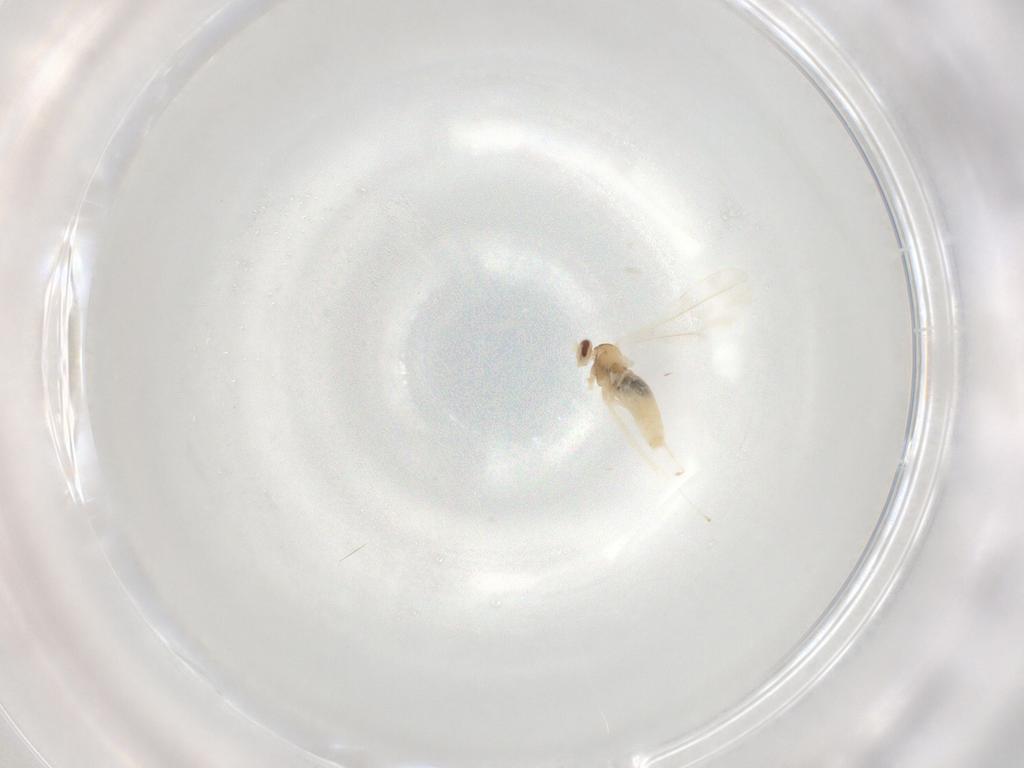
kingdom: Animalia
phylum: Arthropoda
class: Insecta
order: Diptera
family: Cecidomyiidae
